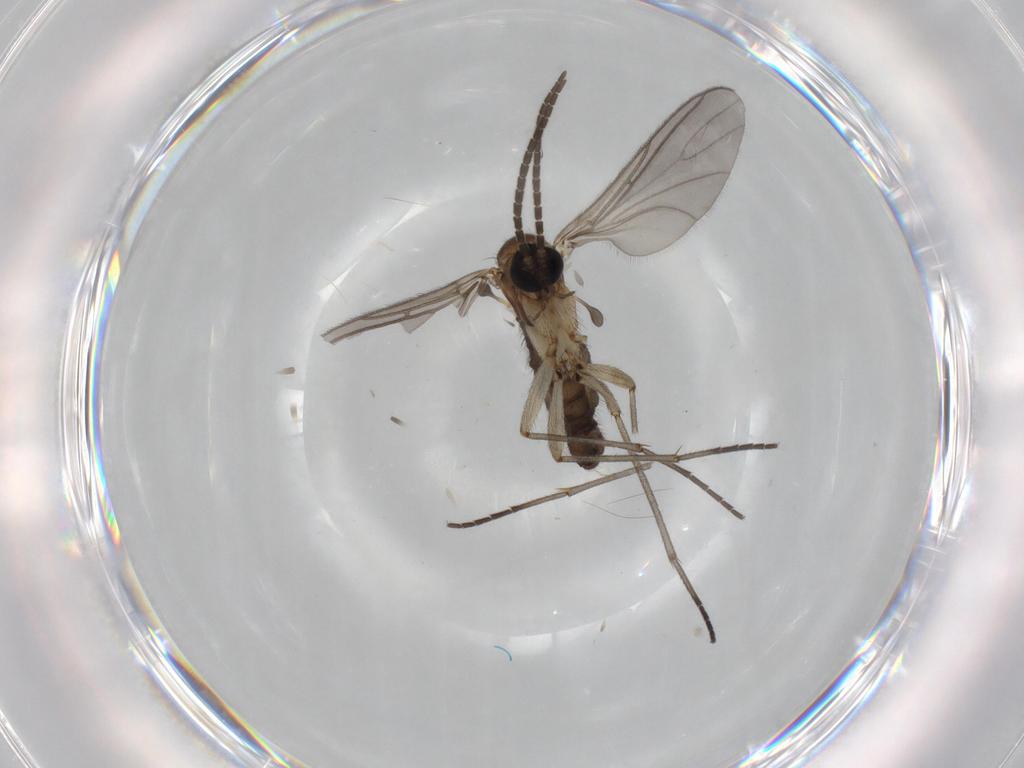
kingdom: Animalia
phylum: Arthropoda
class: Insecta
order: Diptera
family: Sciaridae
